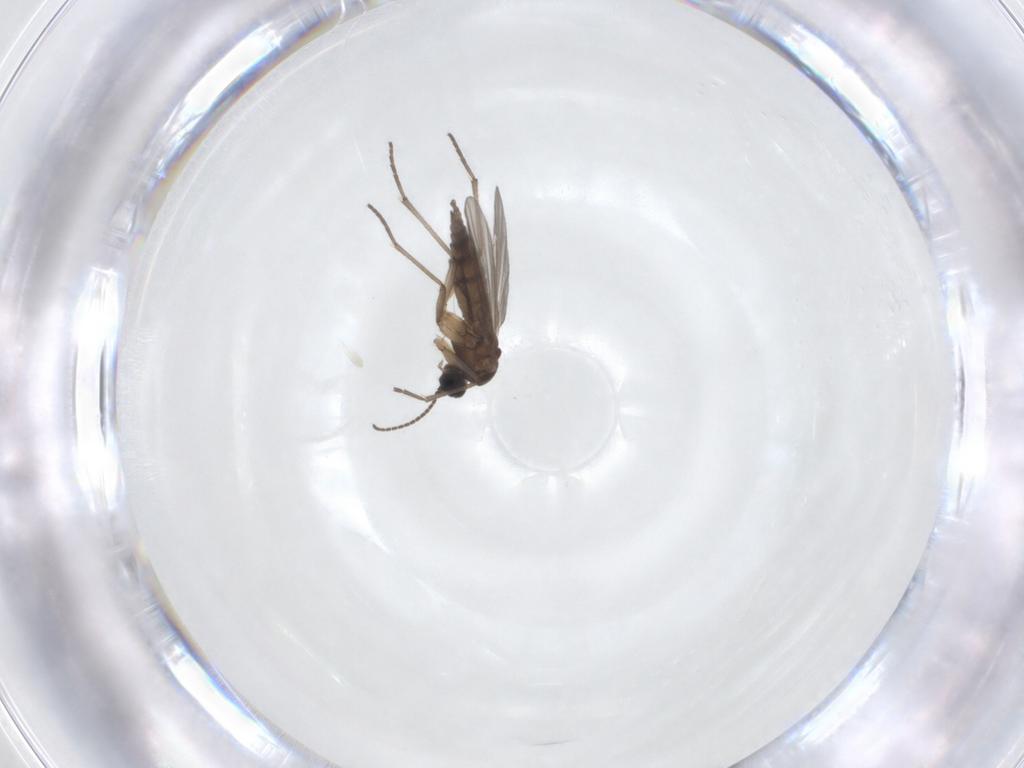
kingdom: Animalia
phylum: Arthropoda
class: Insecta
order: Diptera
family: Sciaridae
